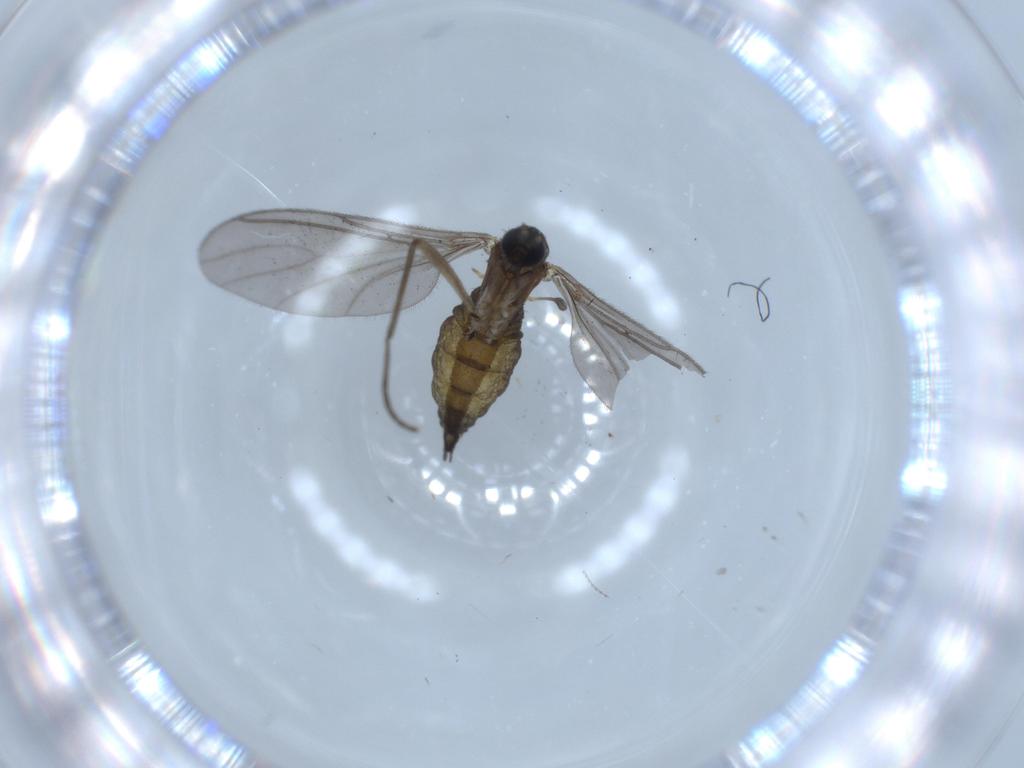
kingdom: Animalia
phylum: Arthropoda
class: Insecta
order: Diptera
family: Sciaridae
